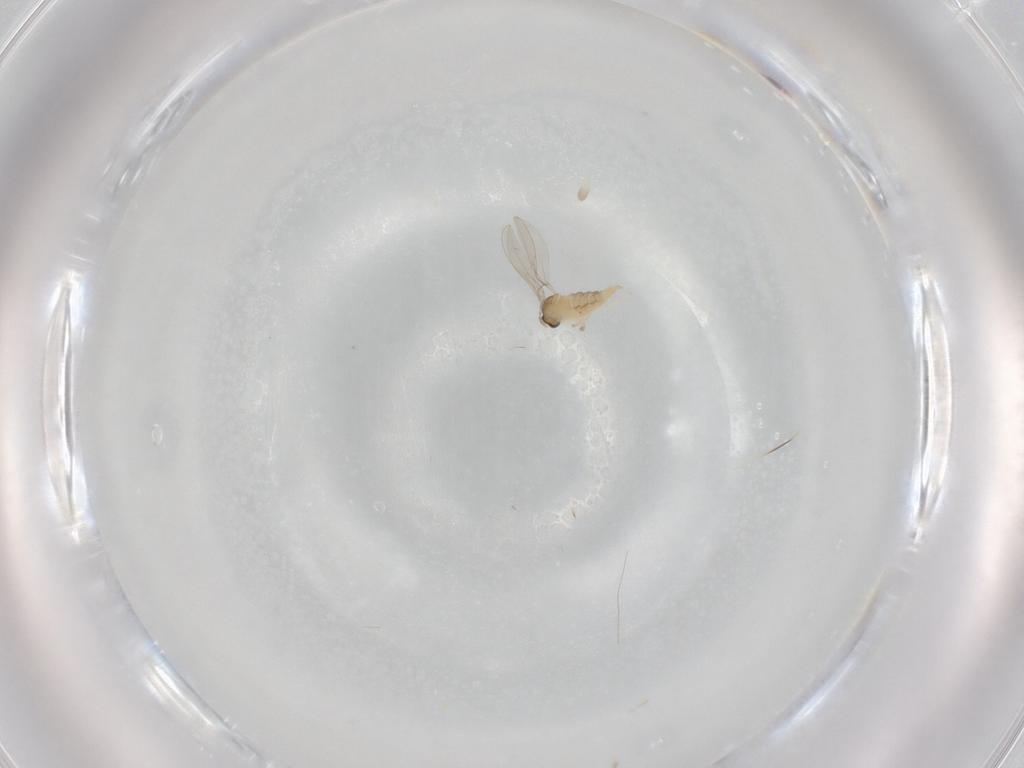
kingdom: Animalia
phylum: Arthropoda
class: Insecta
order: Diptera
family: Cecidomyiidae
